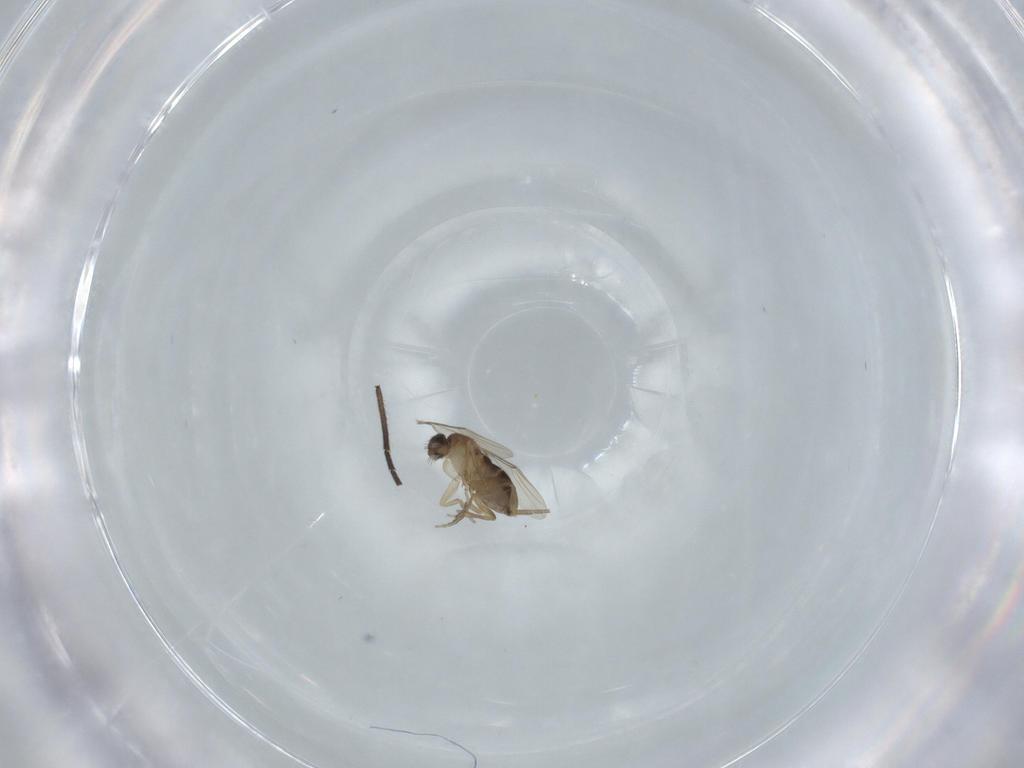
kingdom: Animalia
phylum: Arthropoda
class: Insecta
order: Diptera
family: Phoridae
